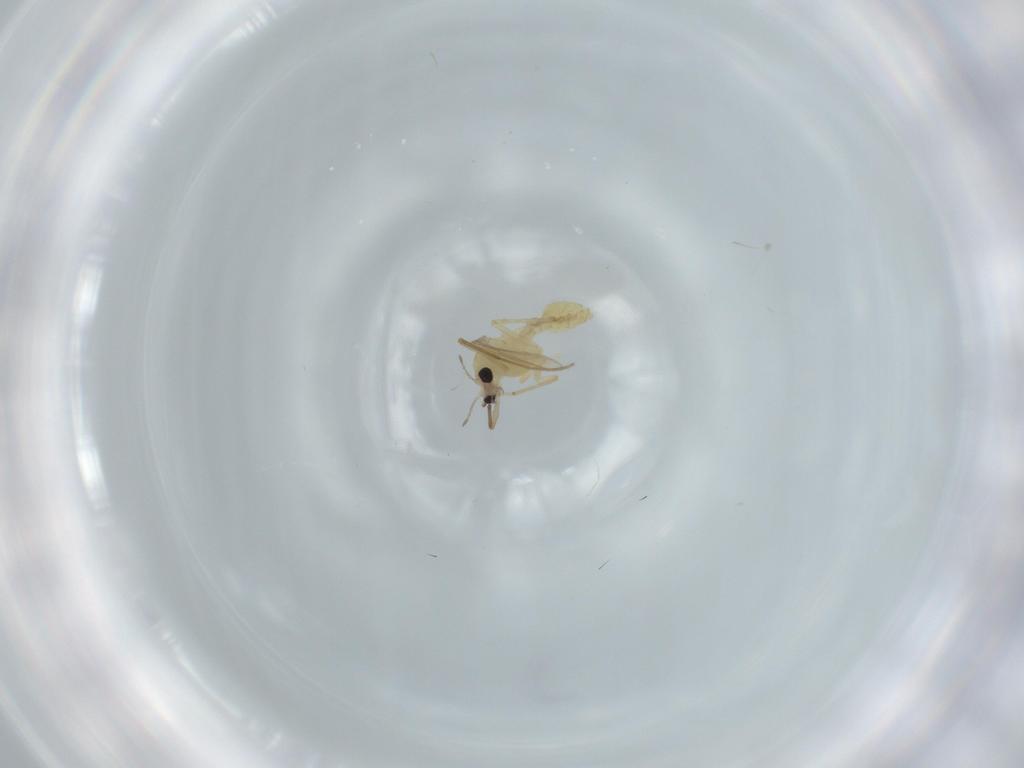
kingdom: Animalia
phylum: Arthropoda
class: Insecta
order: Diptera
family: Chironomidae
